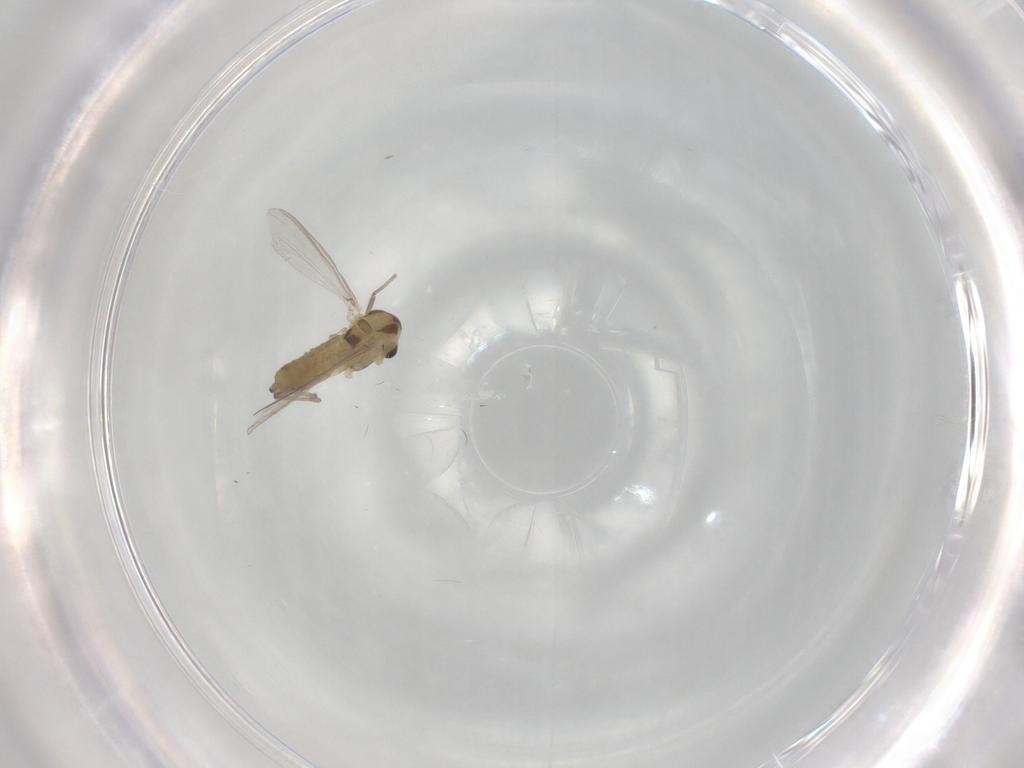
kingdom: Animalia
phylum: Arthropoda
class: Insecta
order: Diptera
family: Chironomidae
